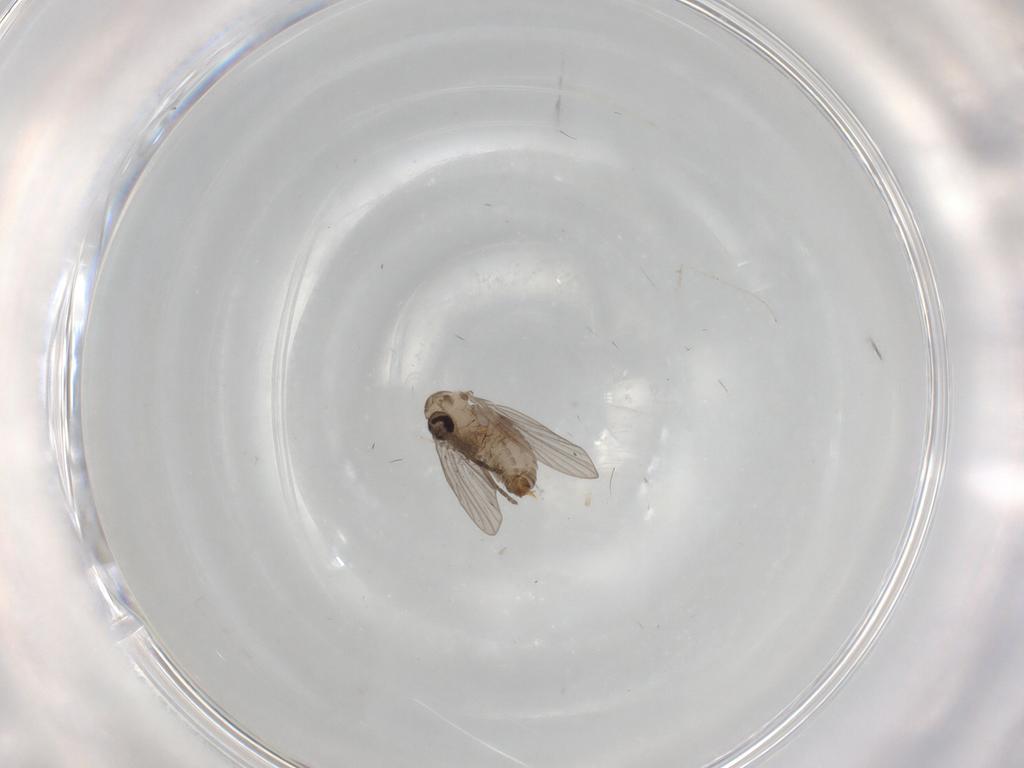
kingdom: Animalia
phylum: Arthropoda
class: Insecta
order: Diptera
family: Psychodidae
